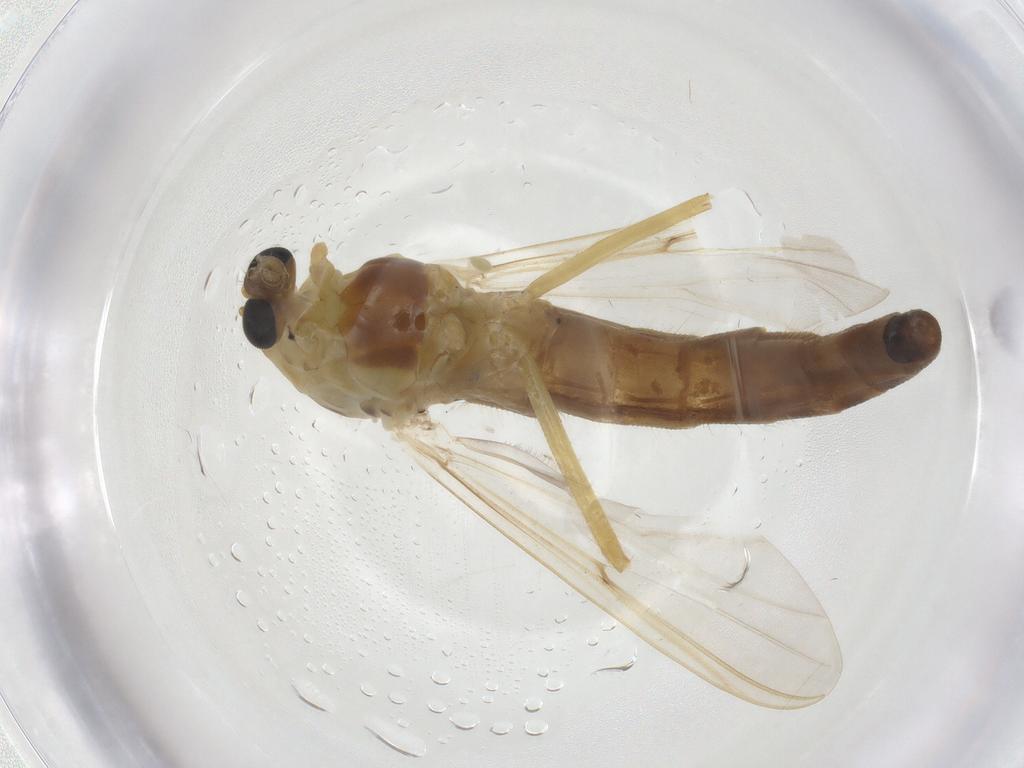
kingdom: Animalia
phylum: Arthropoda
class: Insecta
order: Diptera
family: Chironomidae
